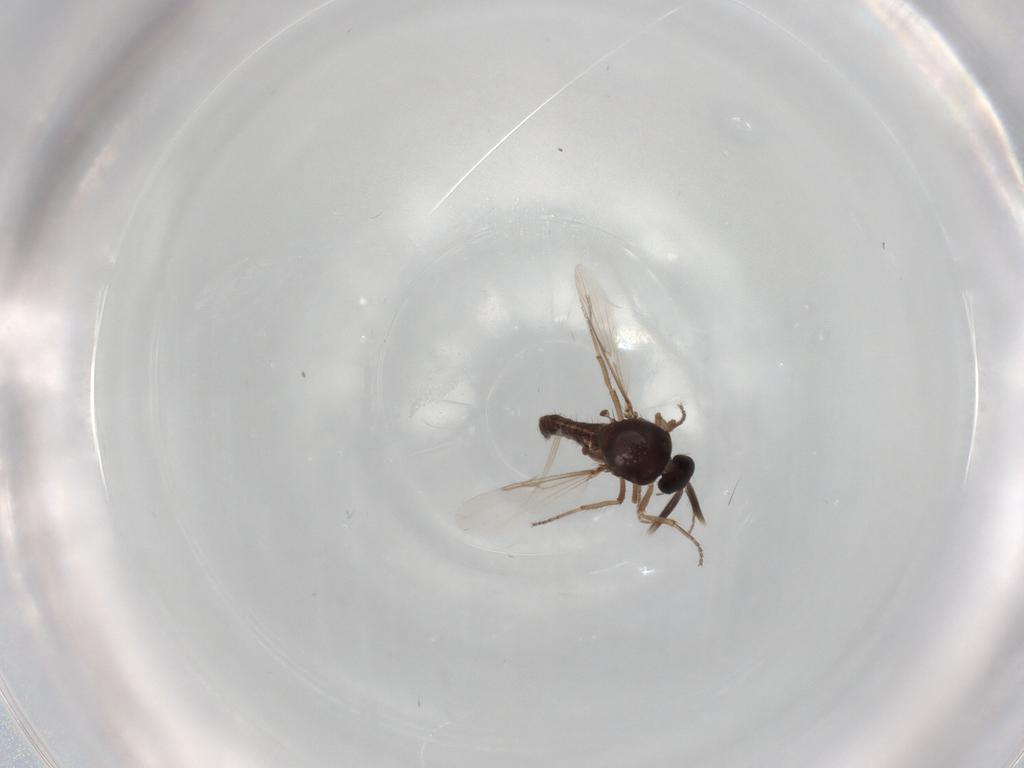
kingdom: Animalia
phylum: Arthropoda
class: Insecta
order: Diptera
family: Ceratopogonidae
